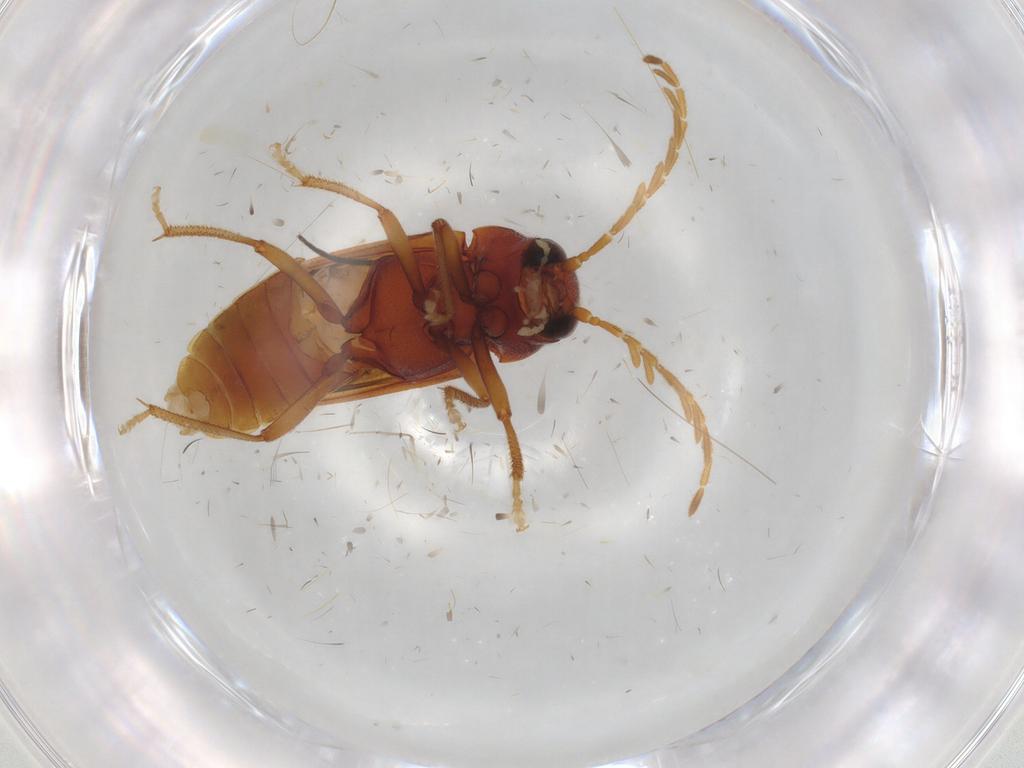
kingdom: Animalia
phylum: Arthropoda
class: Insecta
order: Coleoptera
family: Ptilodactylidae
